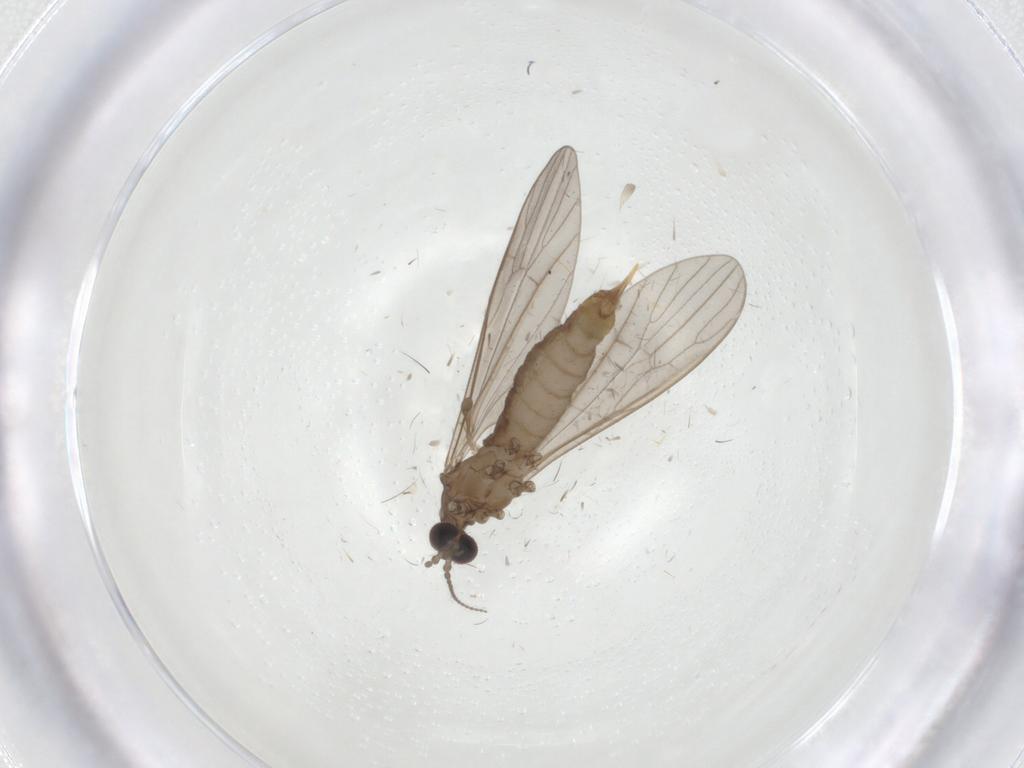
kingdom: Animalia
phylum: Arthropoda
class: Insecta
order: Diptera
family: Limoniidae
